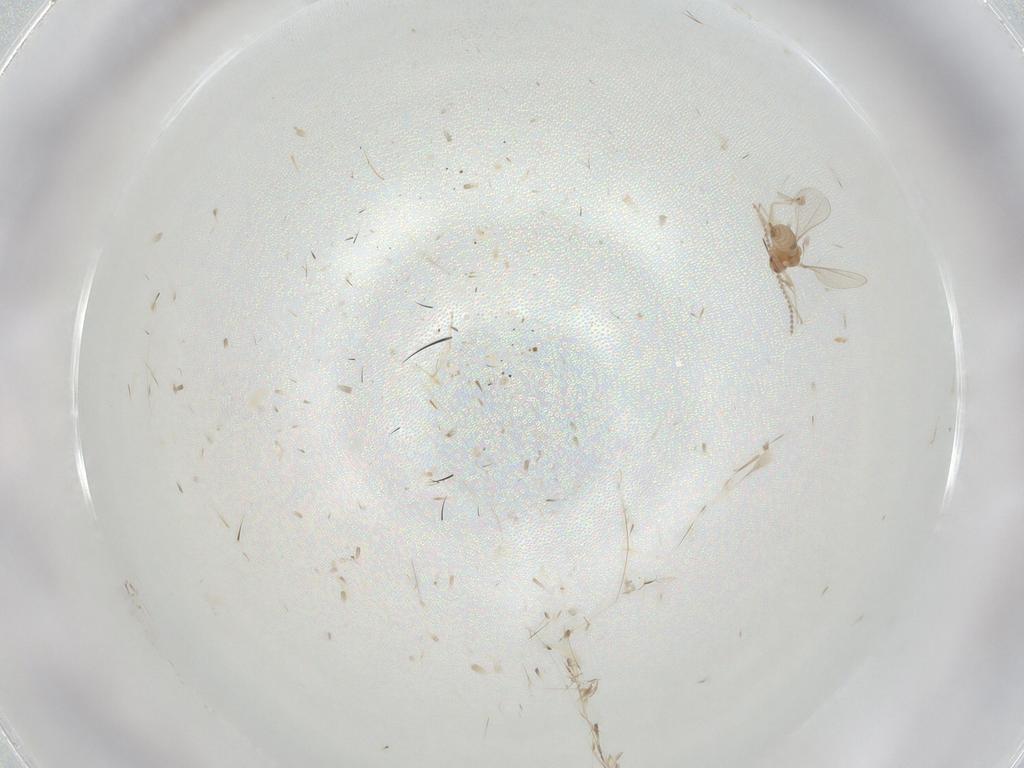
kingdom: Animalia
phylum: Arthropoda
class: Insecta
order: Diptera
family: Cecidomyiidae
